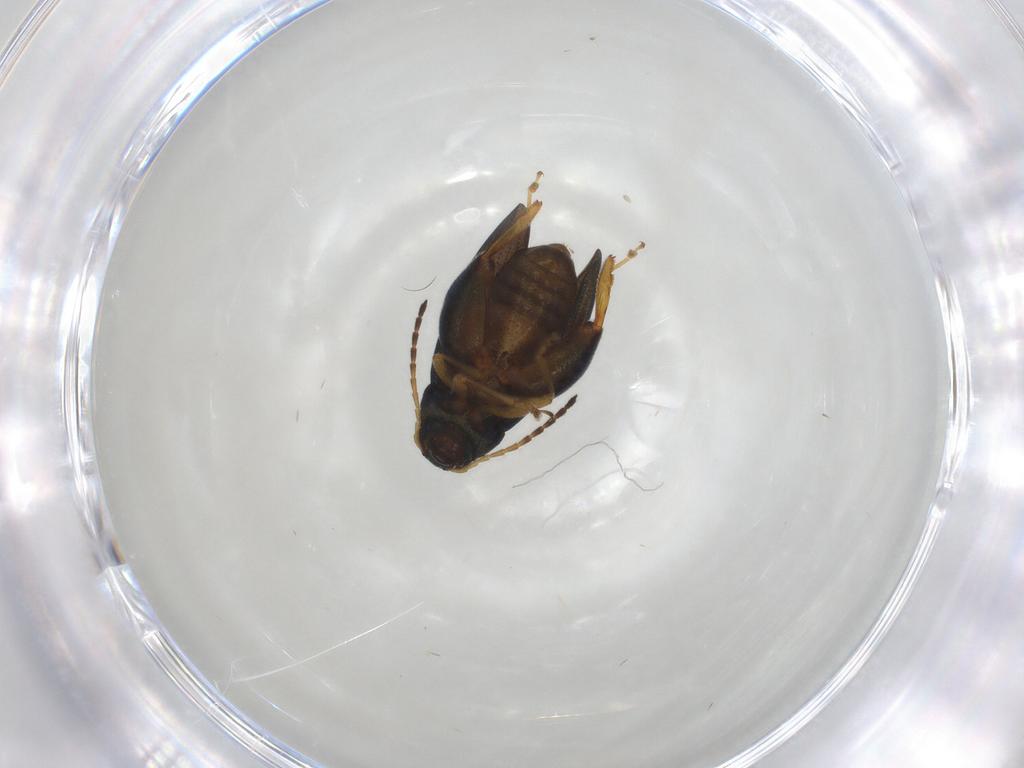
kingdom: Animalia
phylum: Arthropoda
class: Insecta
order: Coleoptera
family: Chrysomelidae
